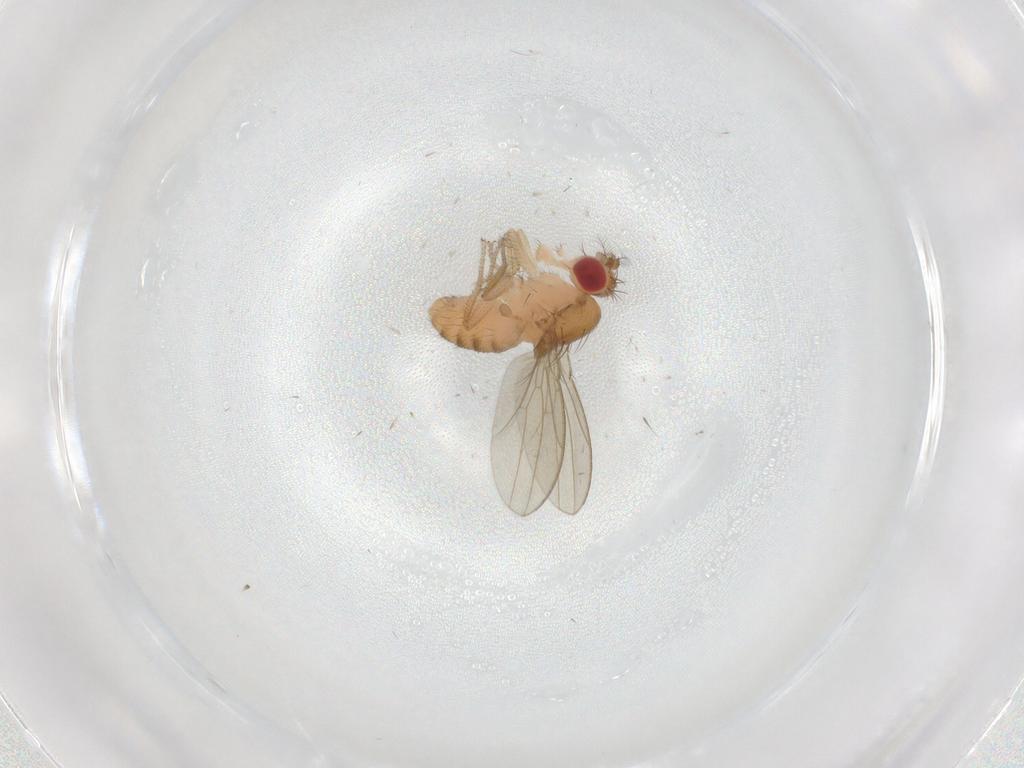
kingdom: Animalia
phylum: Arthropoda
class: Insecta
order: Diptera
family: Drosophilidae
